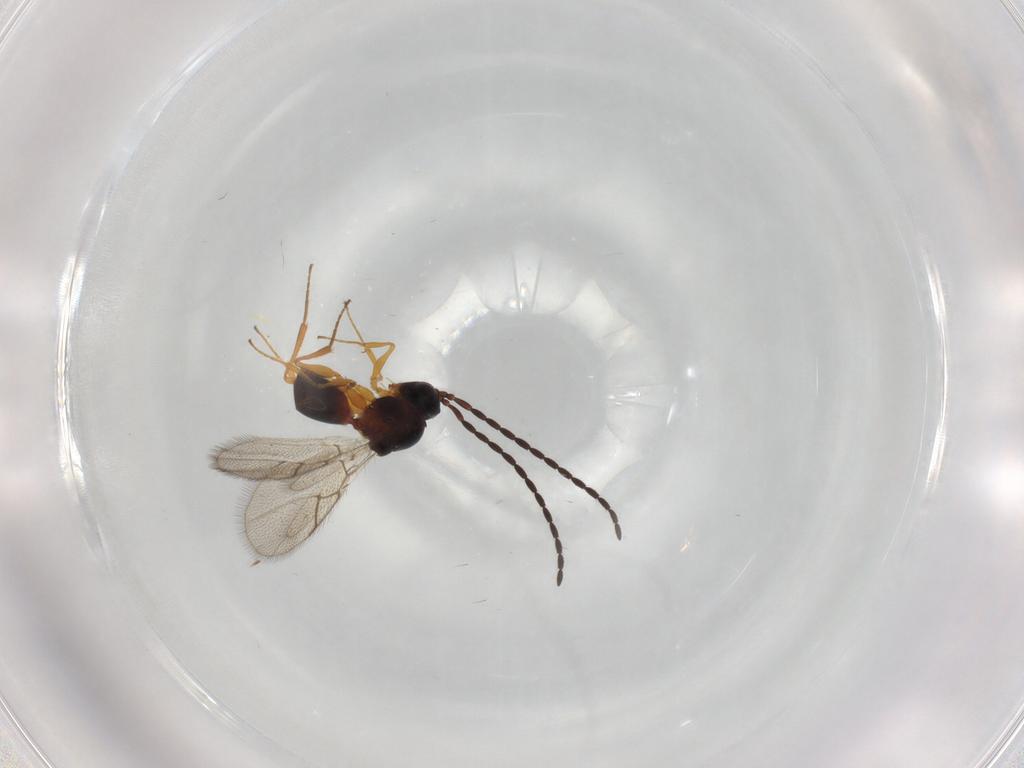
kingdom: Animalia
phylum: Arthropoda
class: Insecta
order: Hymenoptera
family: Figitidae
